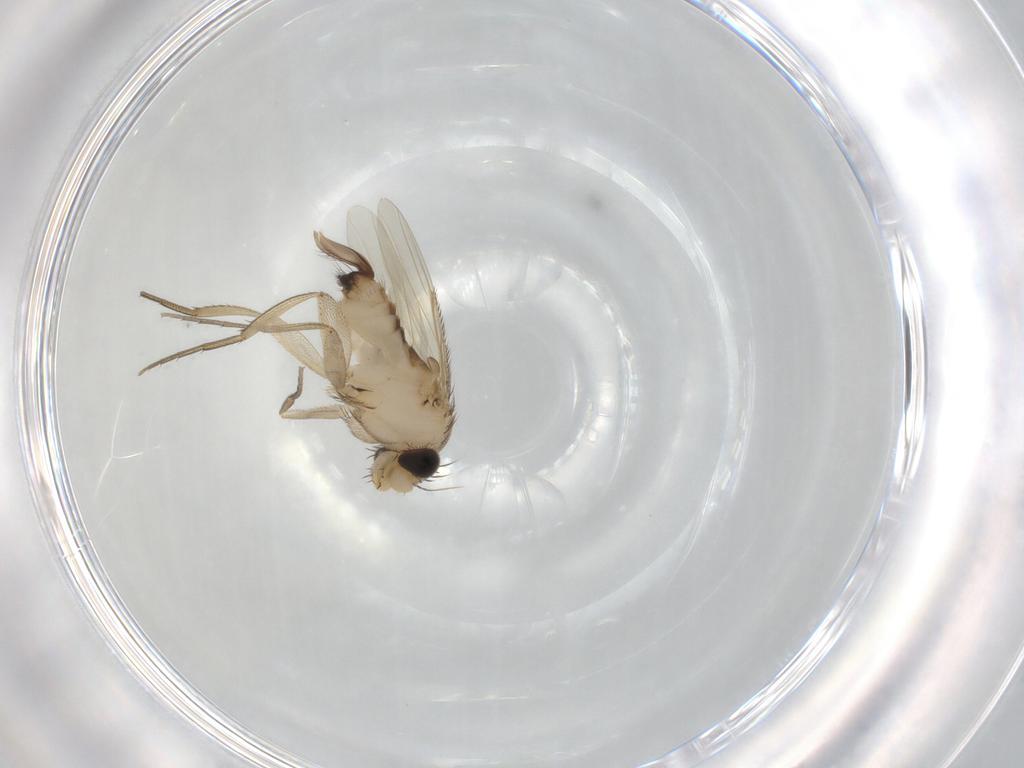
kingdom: Animalia
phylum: Arthropoda
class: Insecta
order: Diptera
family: Phoridae
